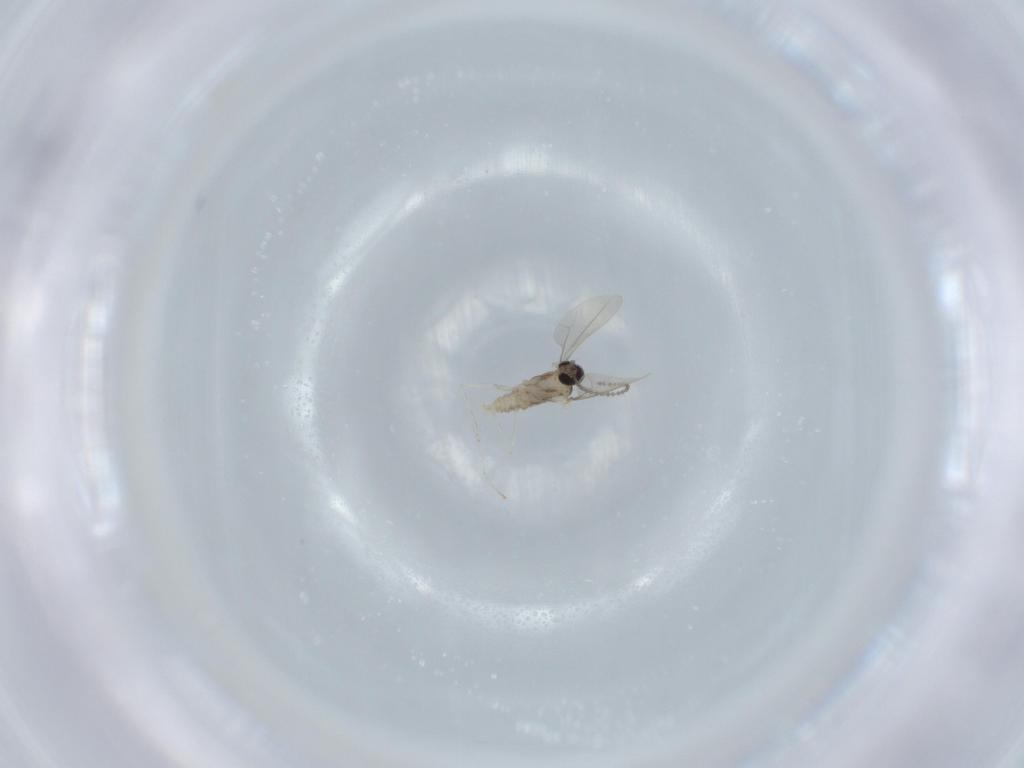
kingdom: Animalia
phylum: Arthropoda
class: Insecta
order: Diptera
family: Cecidomyiidae
